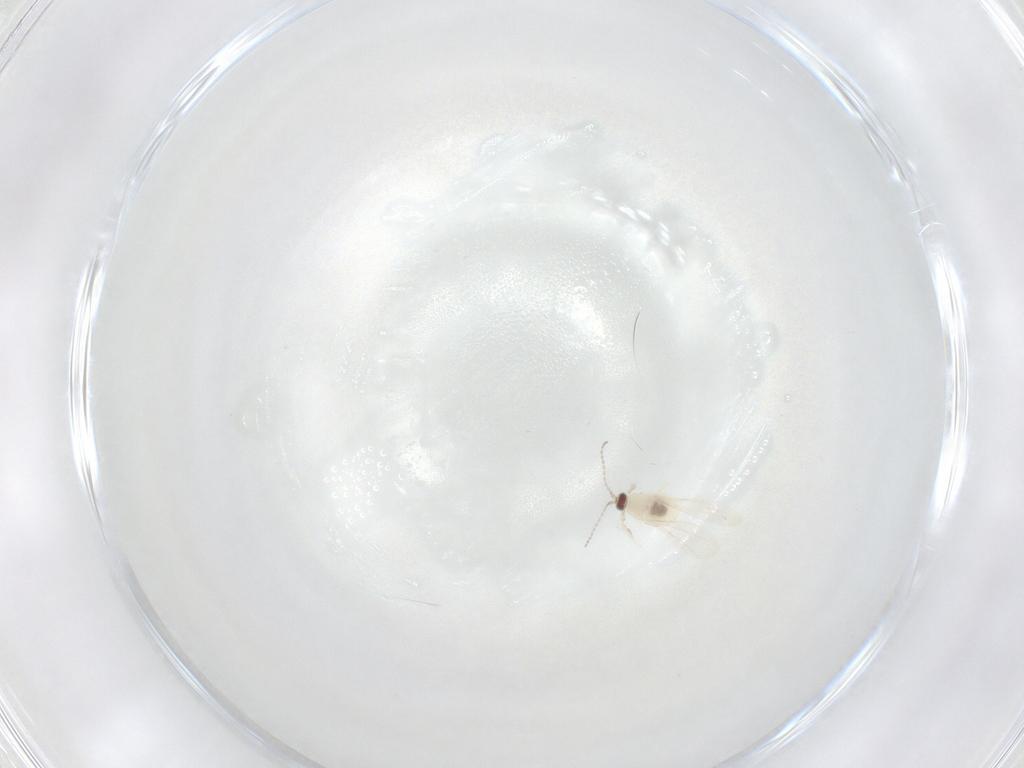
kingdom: Animalia
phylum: Arthropoda
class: Insecta
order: Diptera
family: Cecidomyiidae
